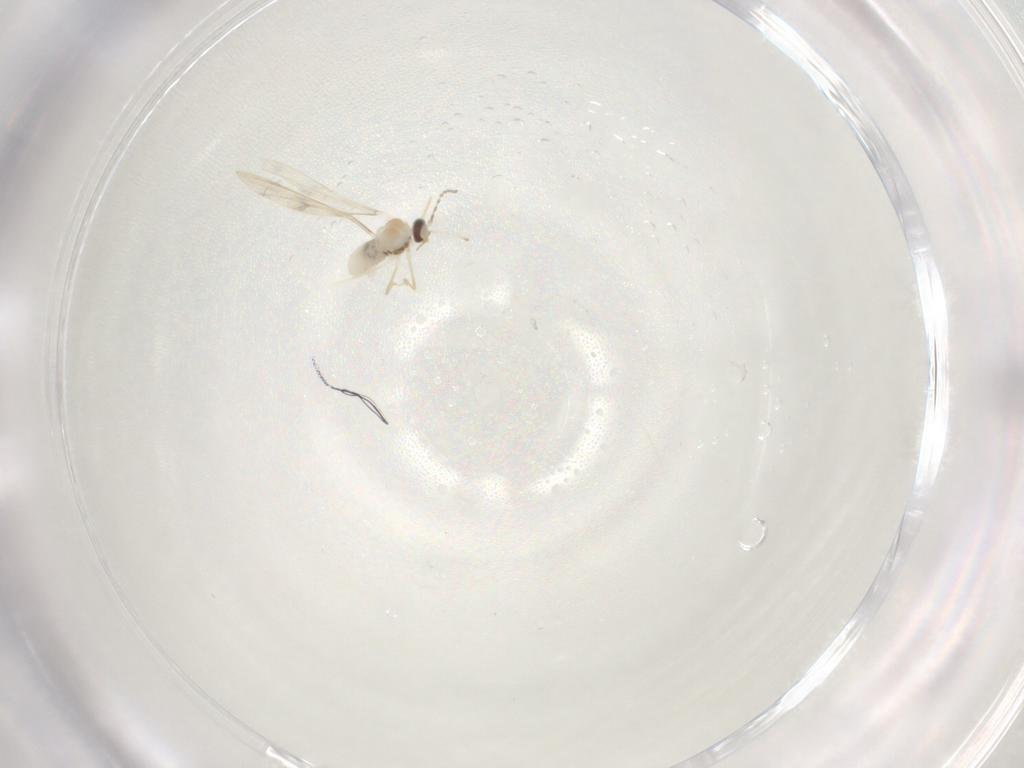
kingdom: Animalia
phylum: Arthropoda
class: Insecta
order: Diptera
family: Cecidomyiidae
